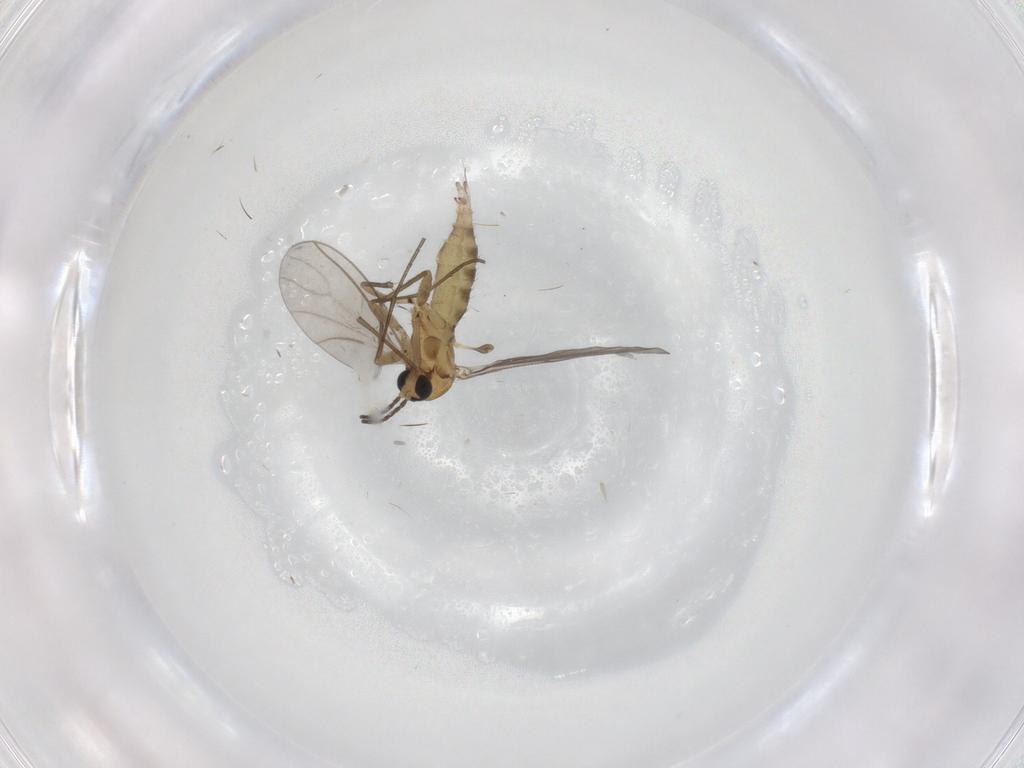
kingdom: Animalia
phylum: Arthropoda
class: Insecta
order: Diptera
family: Sciaridae
